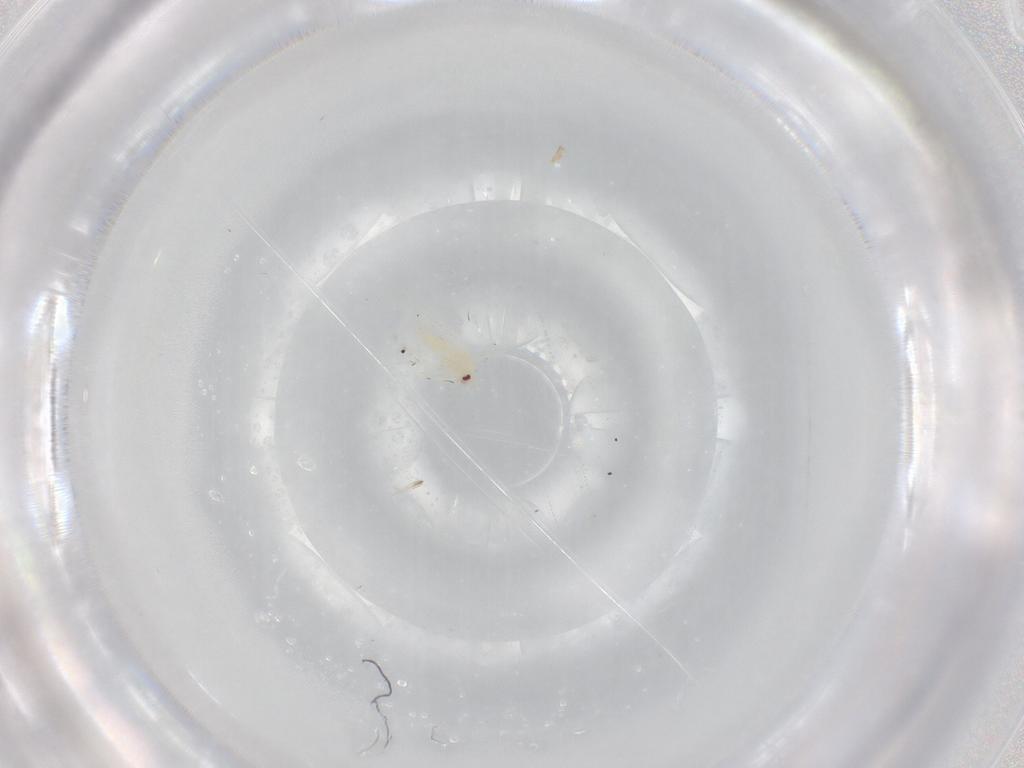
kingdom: Animalia
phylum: Arthropoda
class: Insecta
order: Hemiptera
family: Aleyrodidae
